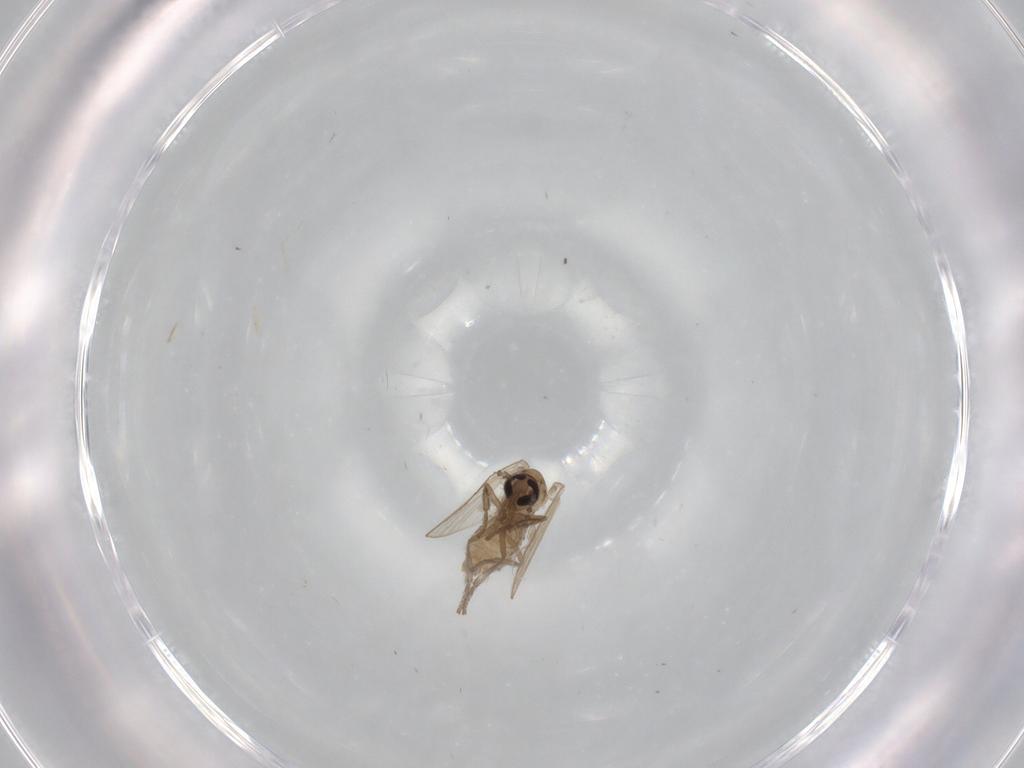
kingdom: Animalia
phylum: Arthropoda
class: Insecta
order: Diptera
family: Psychodidae
